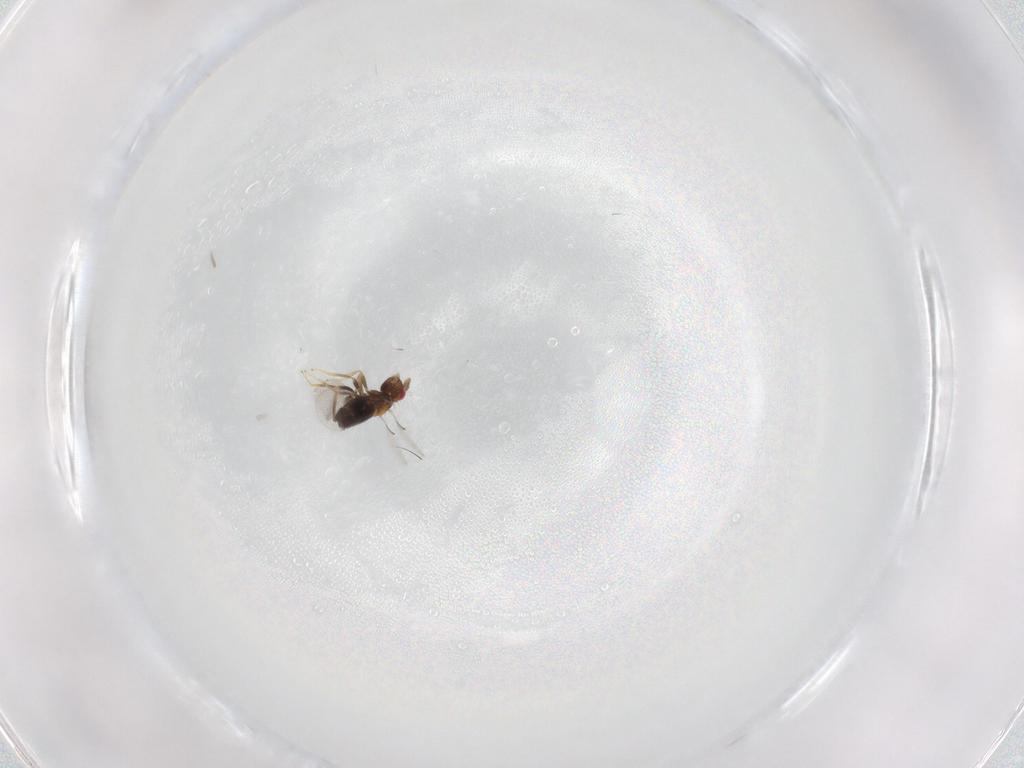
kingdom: Animalia
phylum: Arthropoda
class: Insecta
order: Hymenoptera
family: Trichogrammatidae
